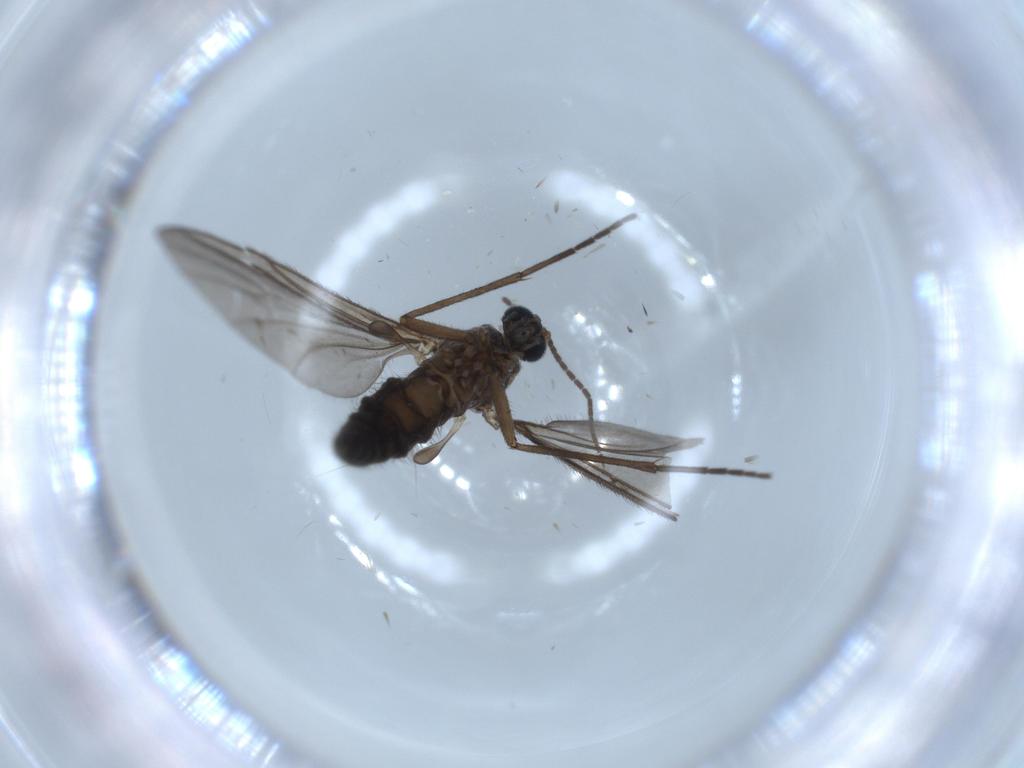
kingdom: Animalia
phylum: Arthropoda
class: Insecta
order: Diptera
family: Sciaridae
